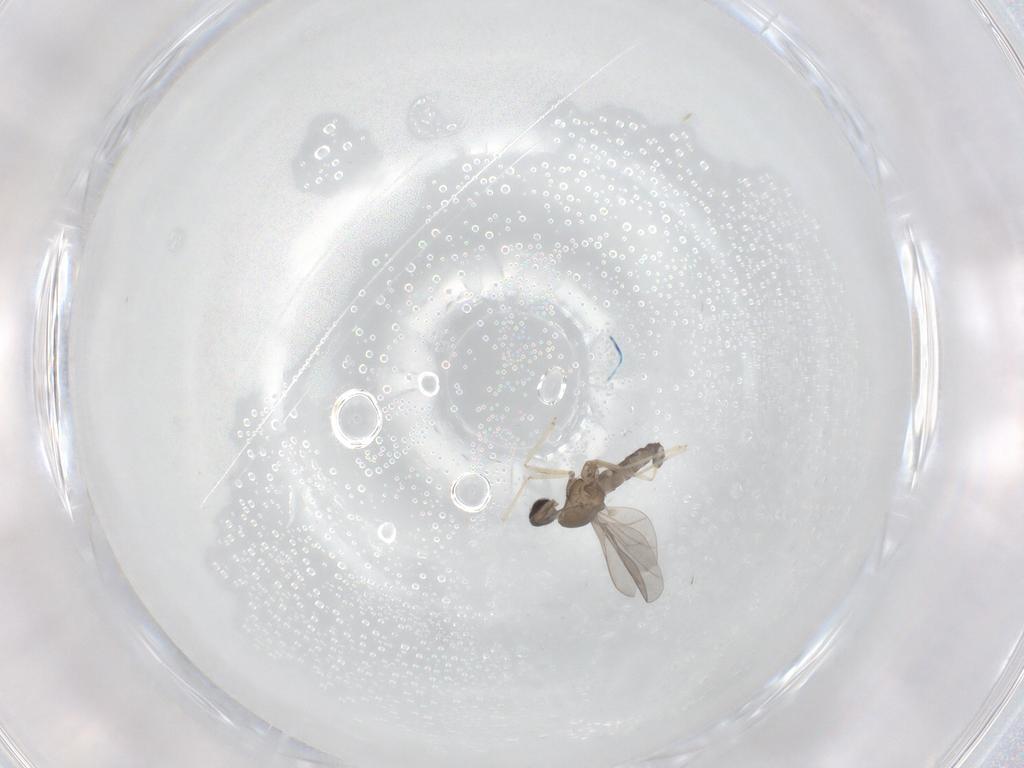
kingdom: Animalia
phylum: Arthropoda
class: Insecta
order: Diptera
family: Cecidomyiidae
